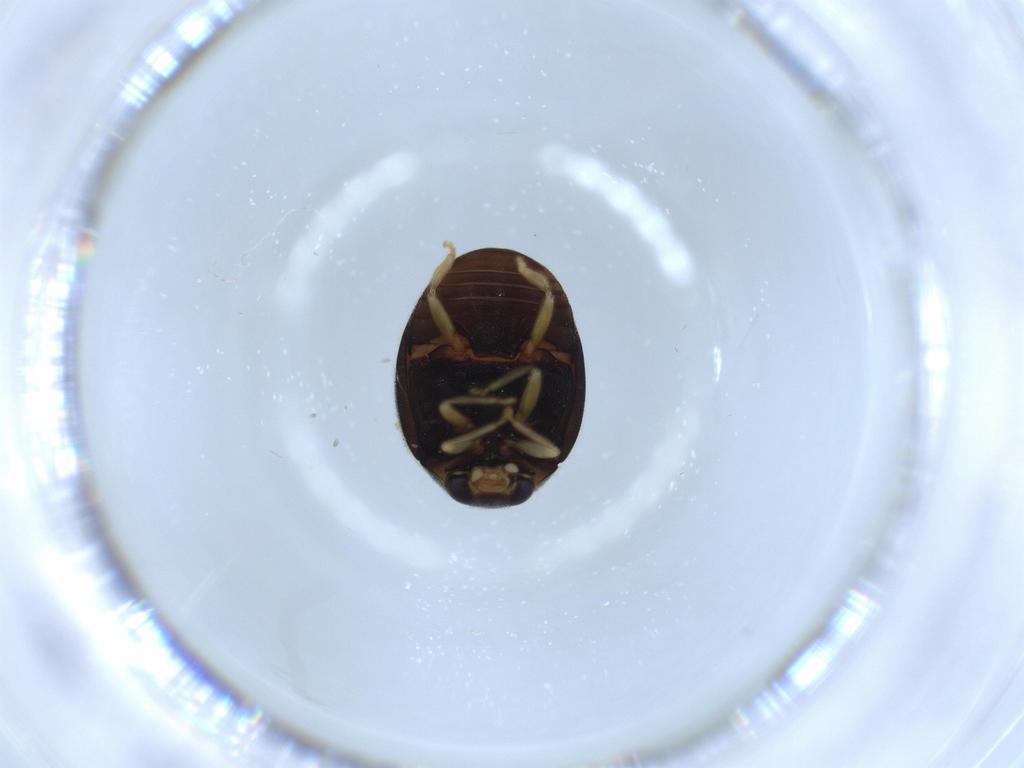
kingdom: Animalia
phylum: Arthropoda
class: Insecta
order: Coleoptera
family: Coccinellidae
